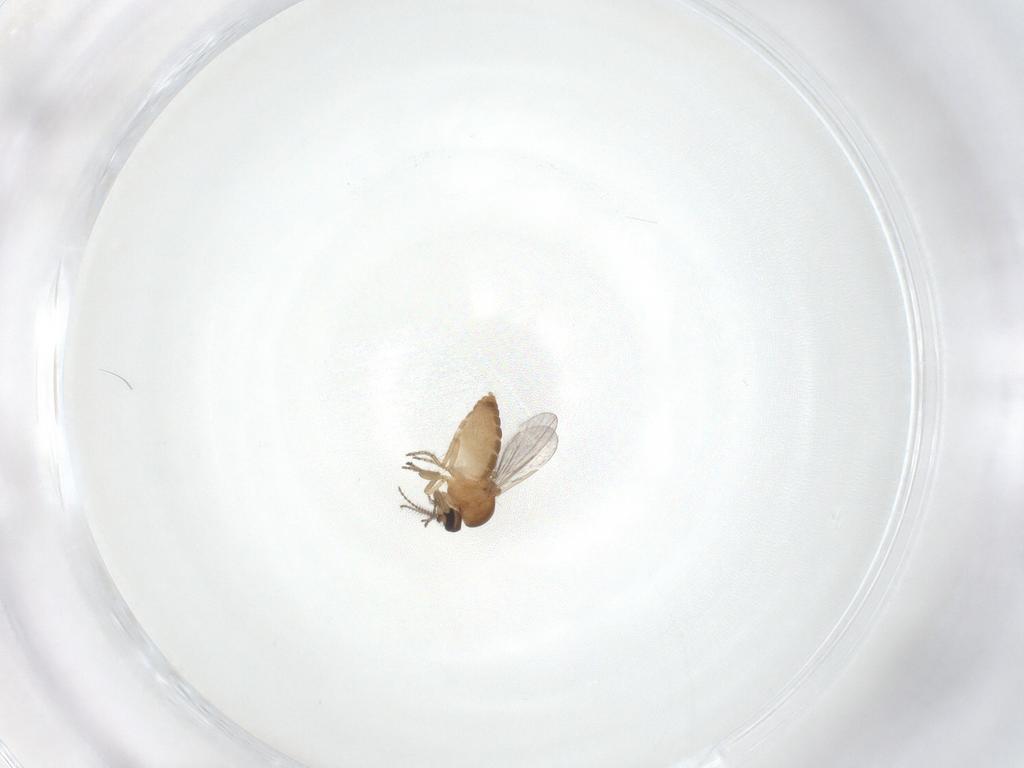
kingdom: Animalia
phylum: Arthropoda
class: Insecta
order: Diptera
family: Ceratopogonidae
